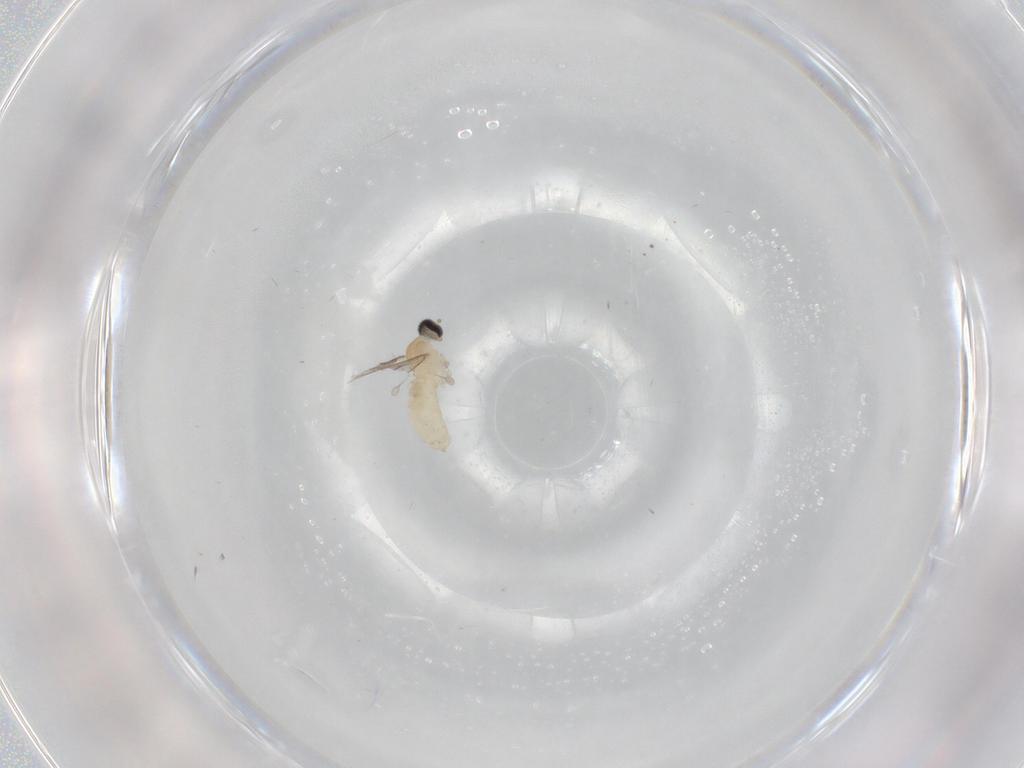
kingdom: Animalia
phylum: Arthropoda
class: Insecta
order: Diptera
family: Cecidomyiidae
